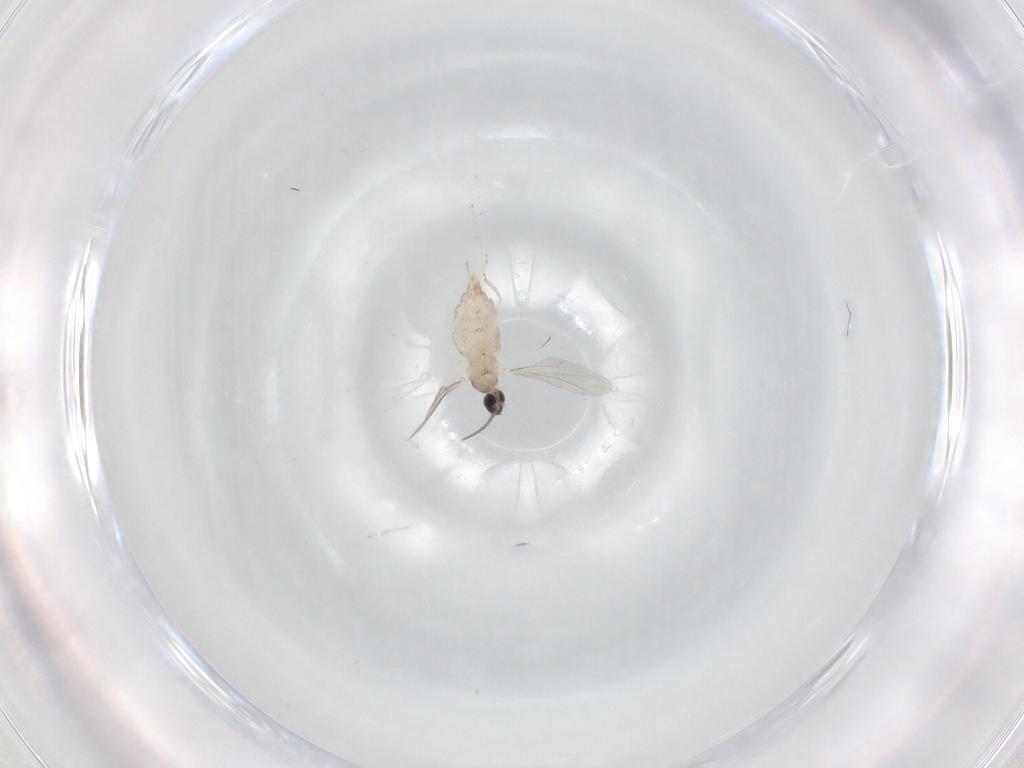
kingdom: Animalia
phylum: Arthropoda
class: Insecta
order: Diptera
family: Cecidomyiidae
